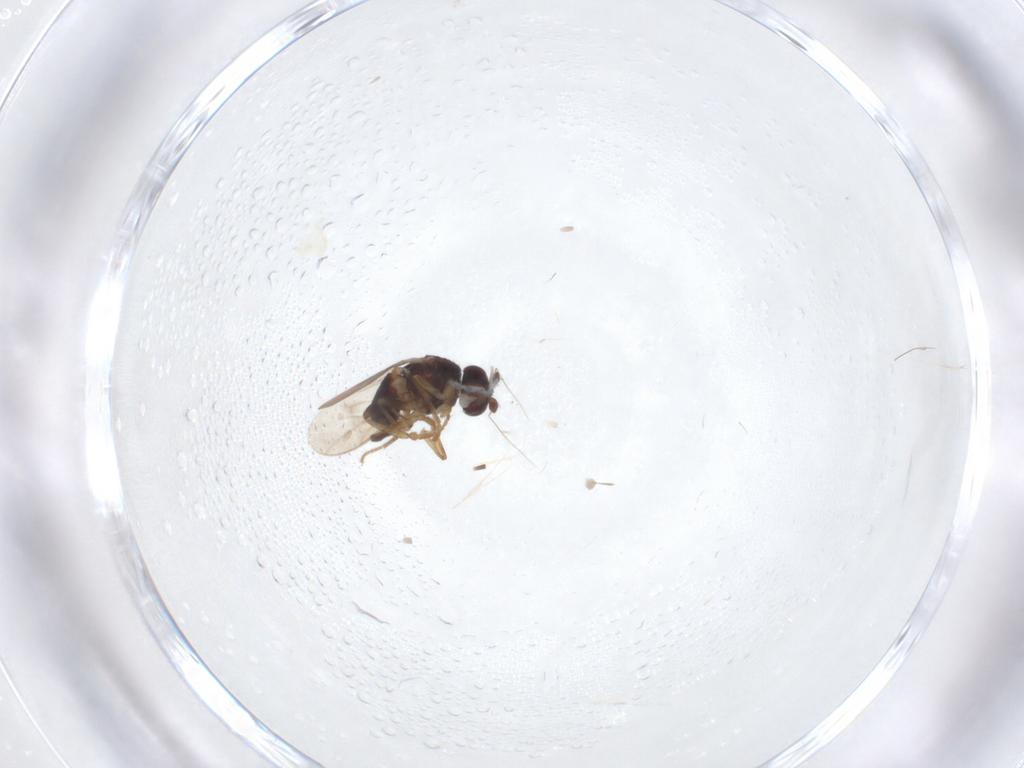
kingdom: Animalia
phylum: Arthropoda
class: Insecta
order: Diptera
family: Sphaeroceridae
